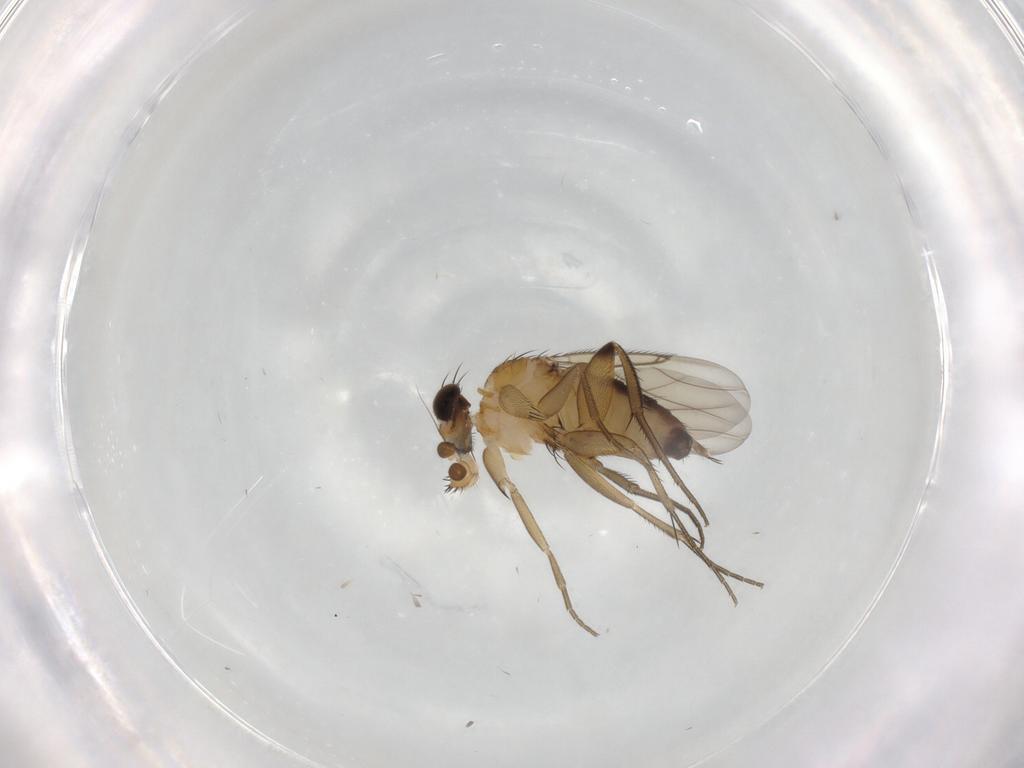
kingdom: Animalia
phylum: Arthropoda
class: Insecta
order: Diptera
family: Phoridae
